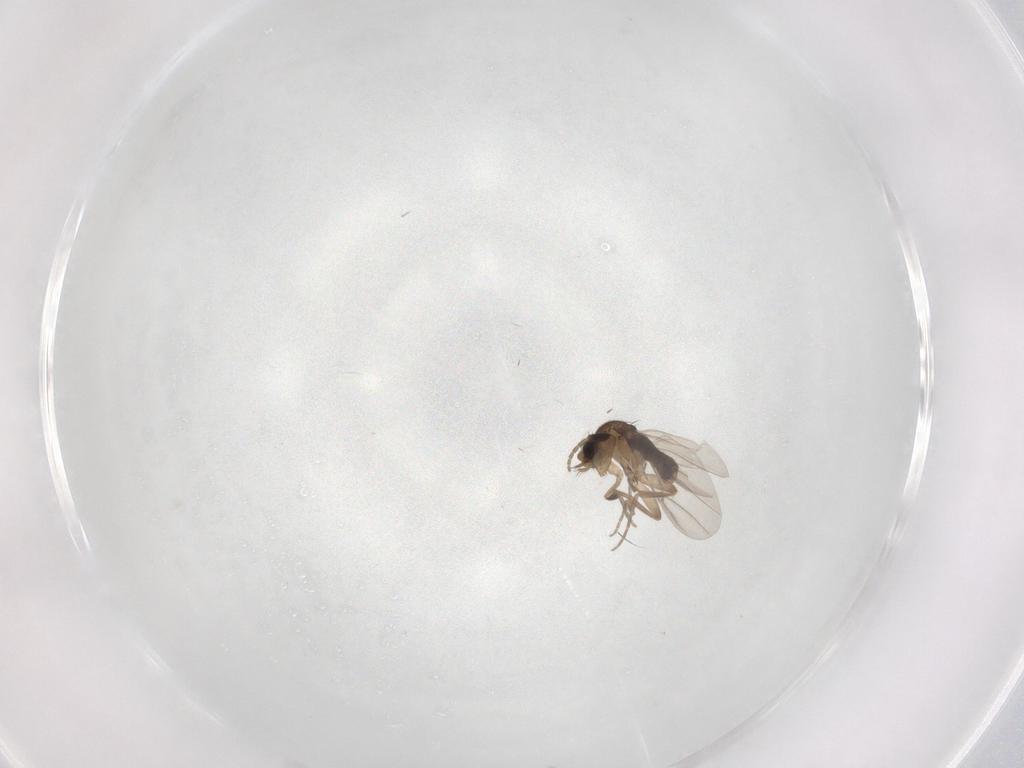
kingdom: Animalia
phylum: Arthropoda
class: Insecta
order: Diptera
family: Phoridae
